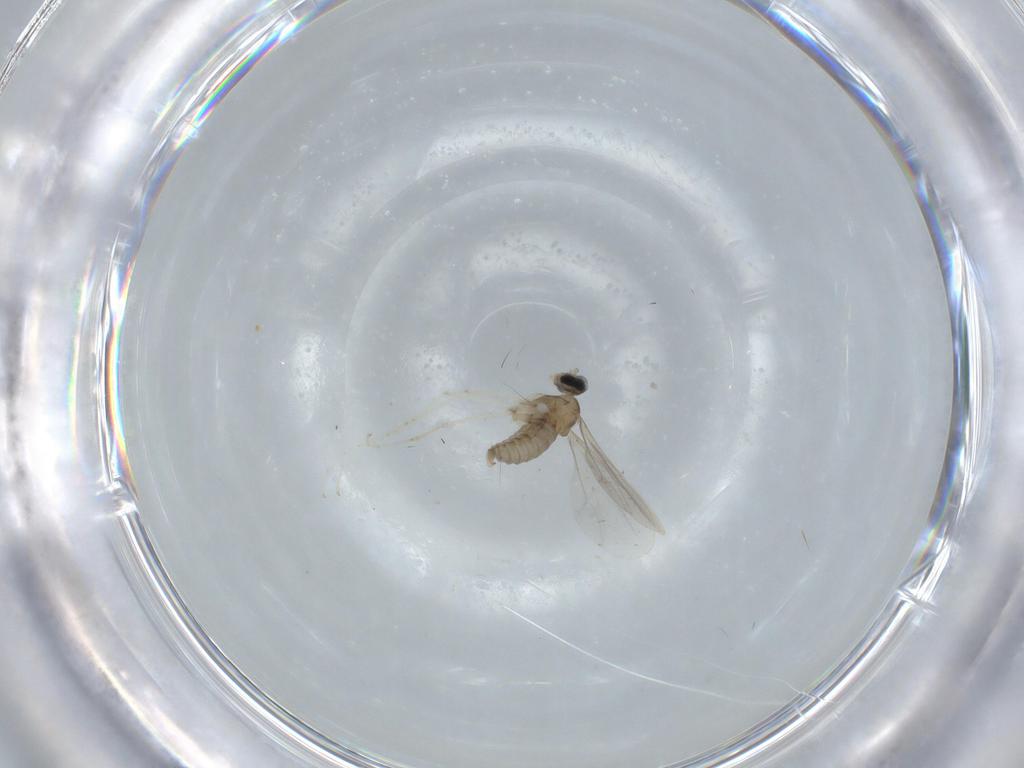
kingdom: Animalia
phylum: Arthropoda
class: Insecta
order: Diptera
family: Cecidomyiidae
